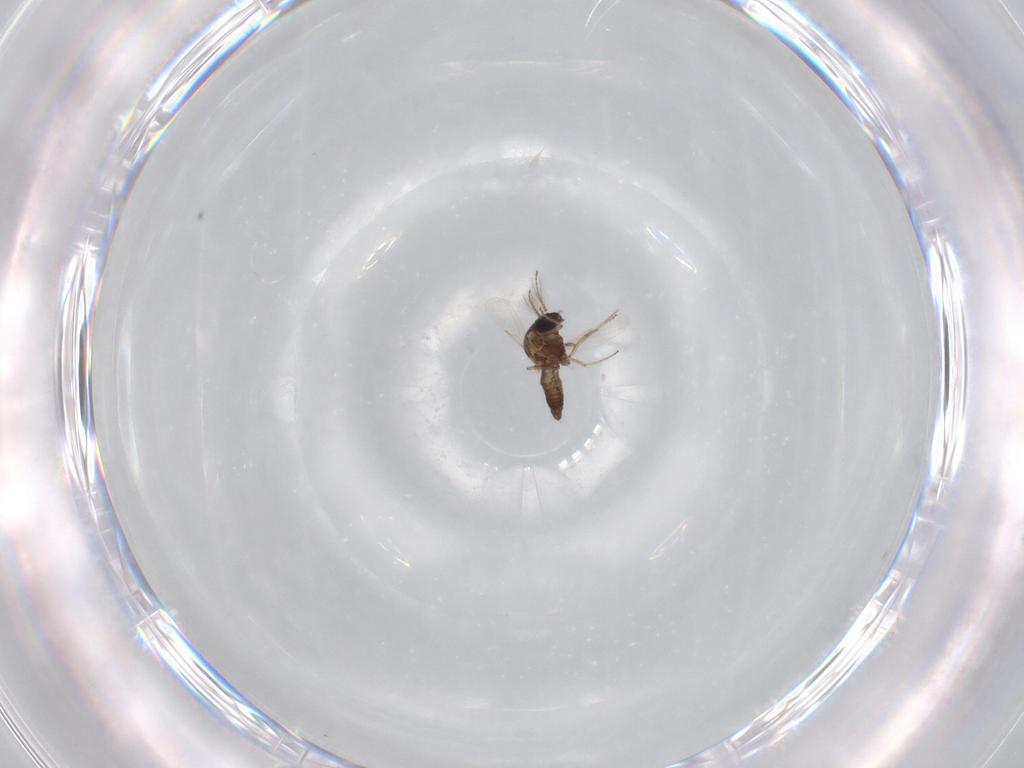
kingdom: Animalia
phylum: Arthropoda
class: Insecta
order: Diptera
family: Ceratopogonidae
